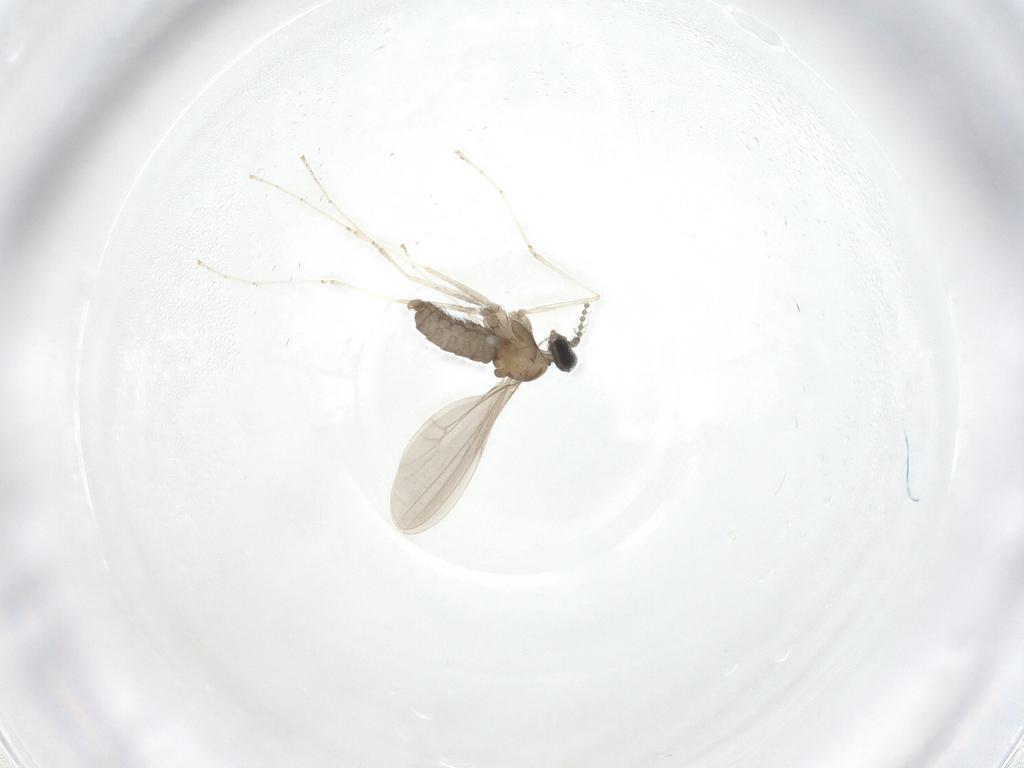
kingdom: Animalia
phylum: Arthropoda
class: Insecta
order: Diptera
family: Cecidomyiidae
